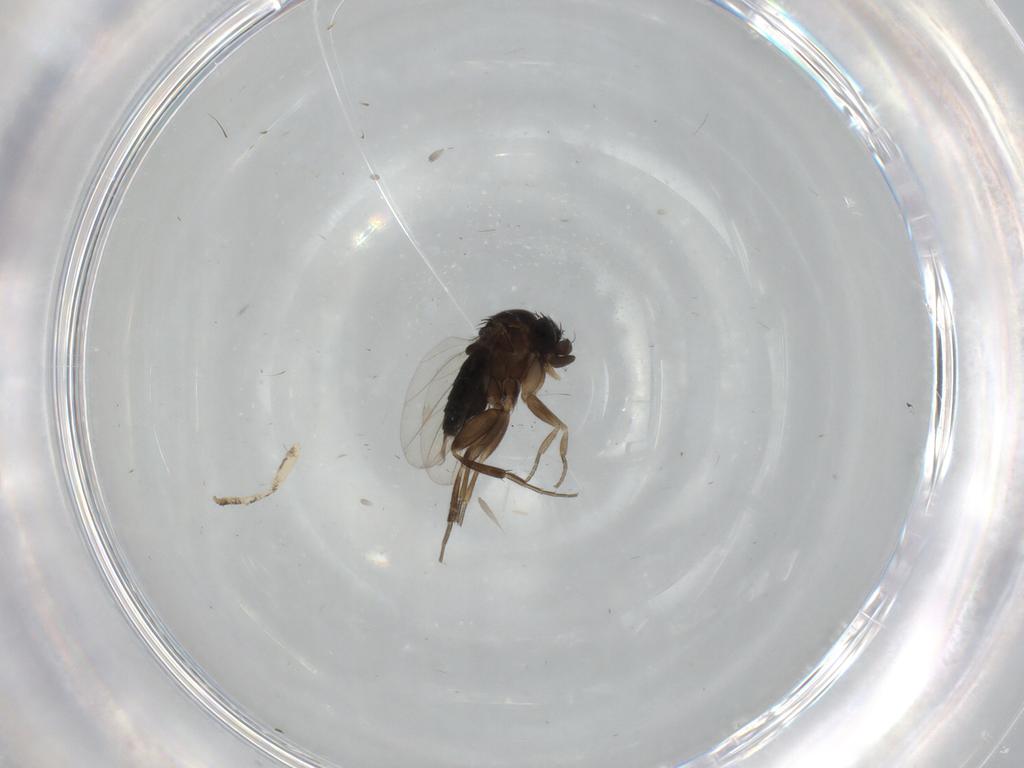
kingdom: Animalia
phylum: Arthropoda
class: Insecta
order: Diptera
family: Phoridae
